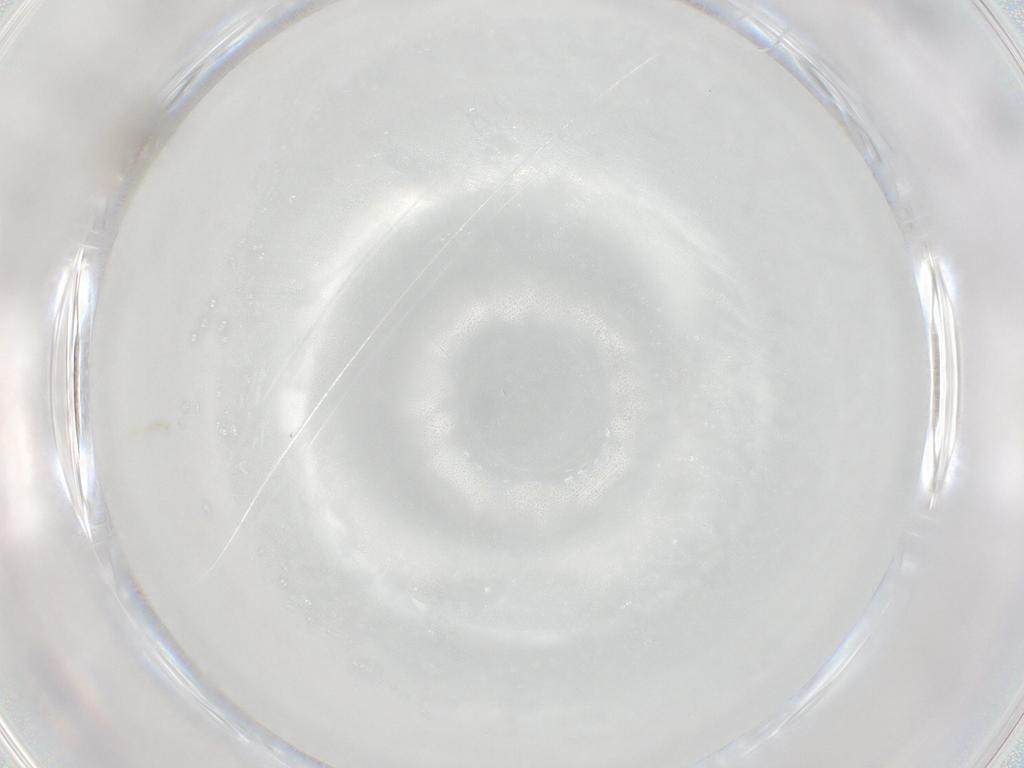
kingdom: Animalia
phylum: Arthropoda
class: Insecta
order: Diptera
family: Cecidomyiidae
